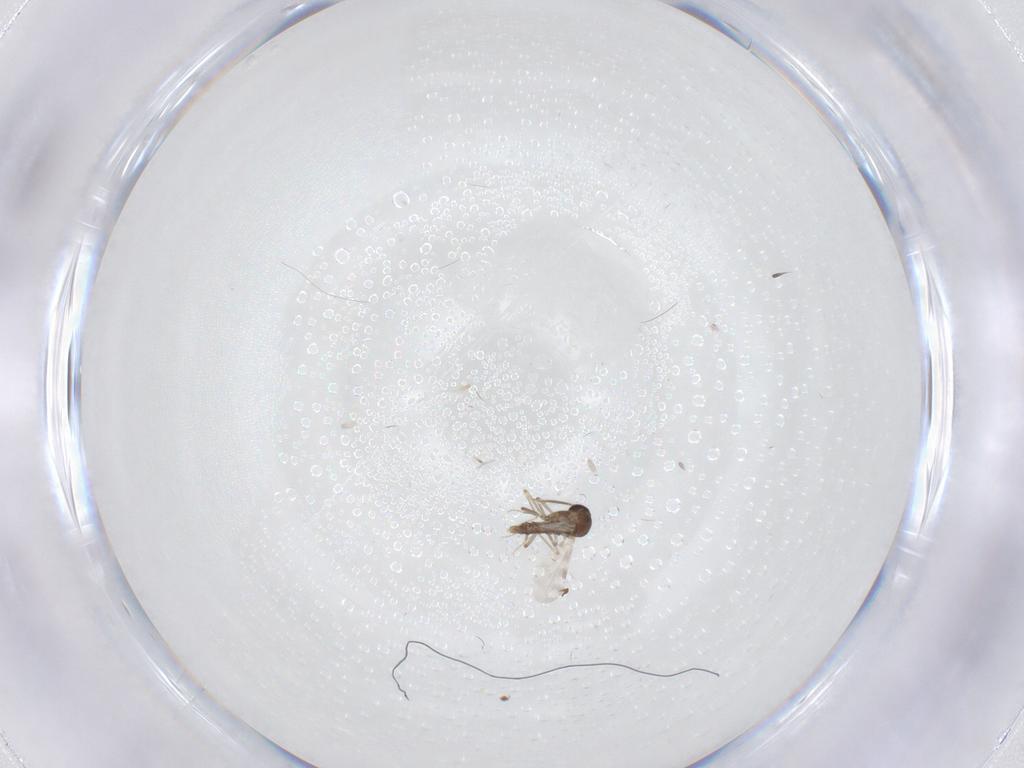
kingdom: Animalia
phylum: Arthropoda
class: Insecta
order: Diptera
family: Ceratopogonidae
